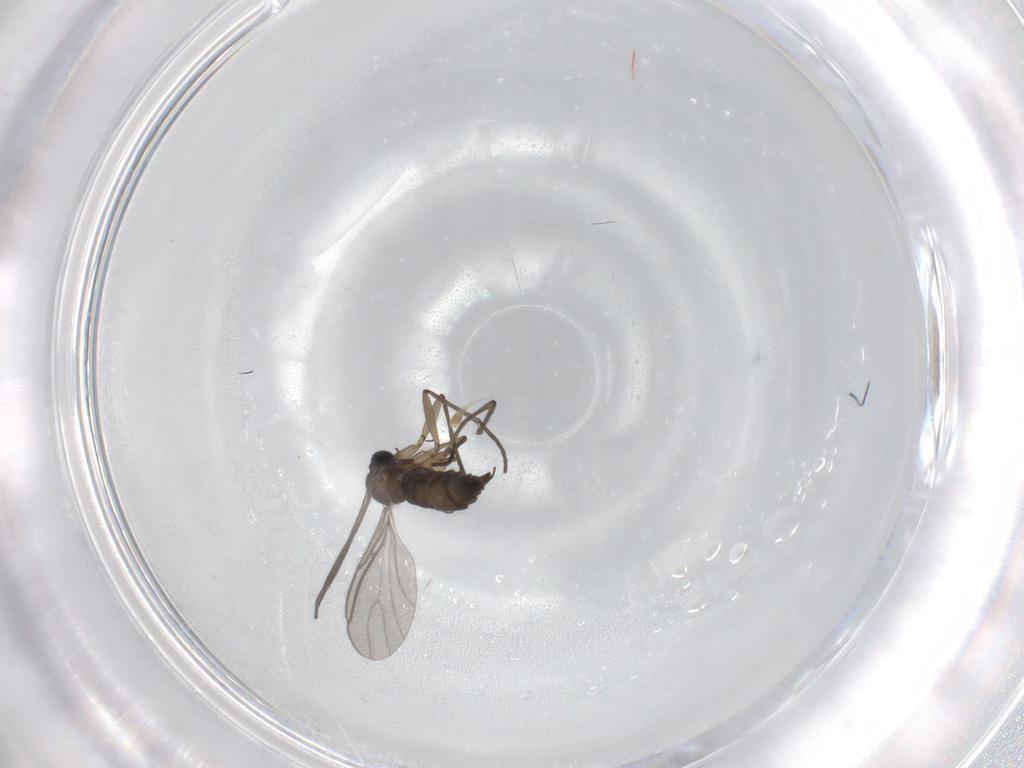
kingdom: Animalia
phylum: Arthropoda
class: Insecta
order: Diptera
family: Sciaridae
